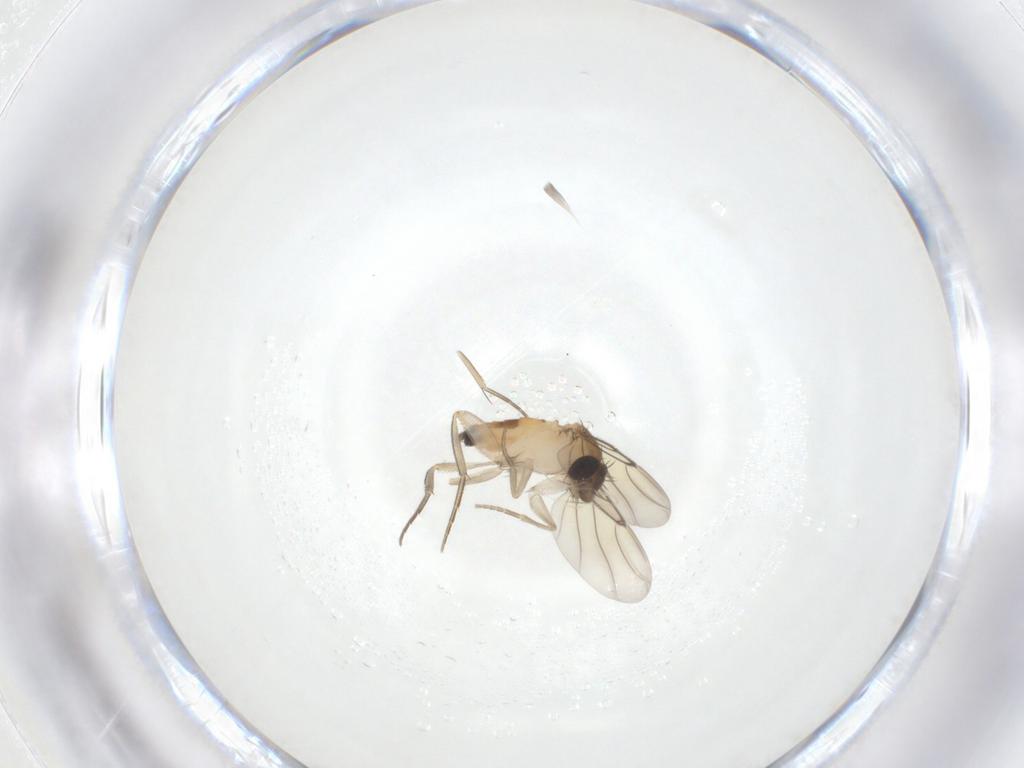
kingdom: Animalia
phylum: Arthropoda
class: Insecta
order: Diptera
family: Phoridae
